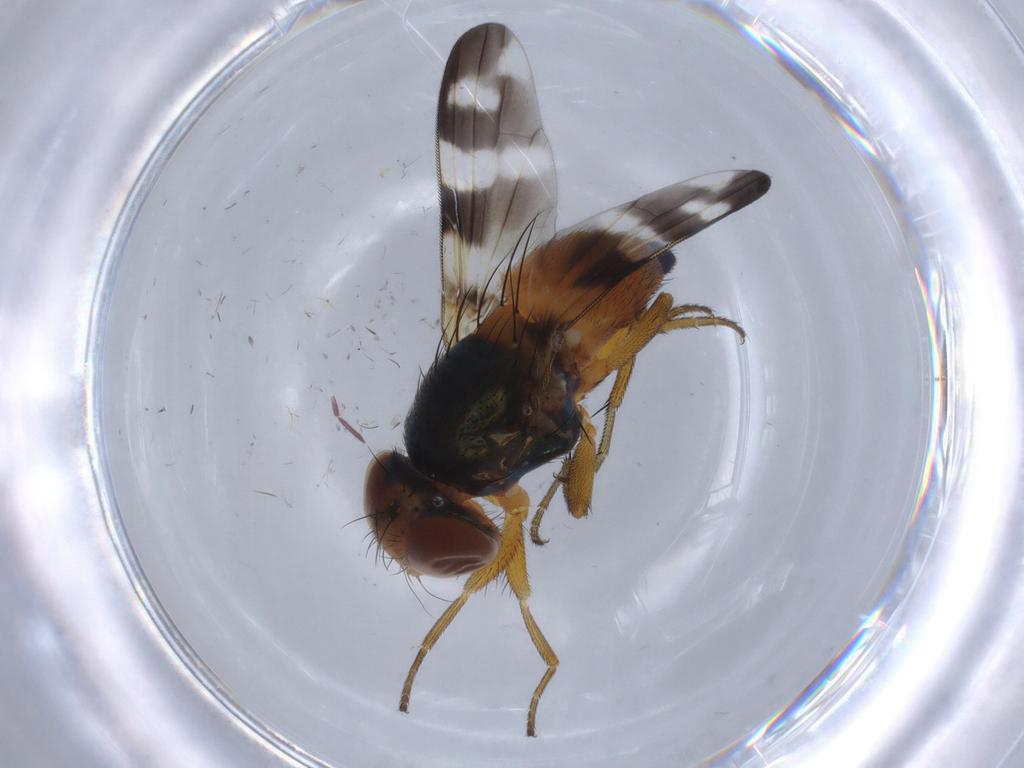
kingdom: Animalia
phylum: Arthropoda
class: Insecta
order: Diptera
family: Ulidiidae
